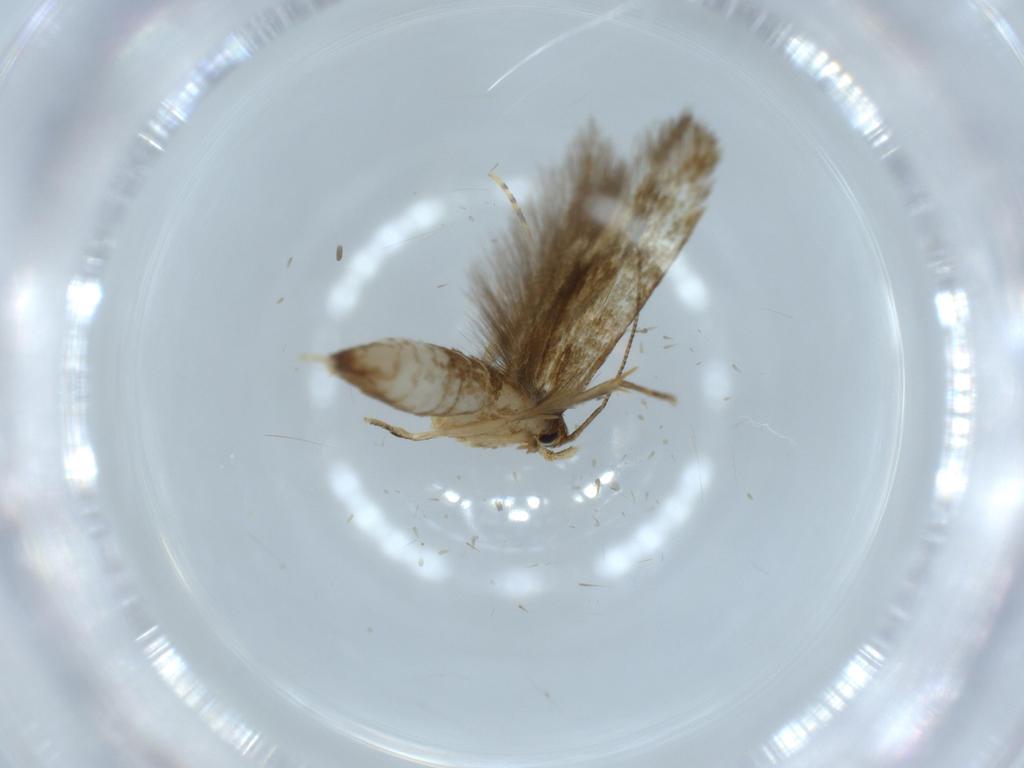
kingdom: Animalia
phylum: Arthropoda
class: Insecta
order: Lepidoptera
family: Tineidae
